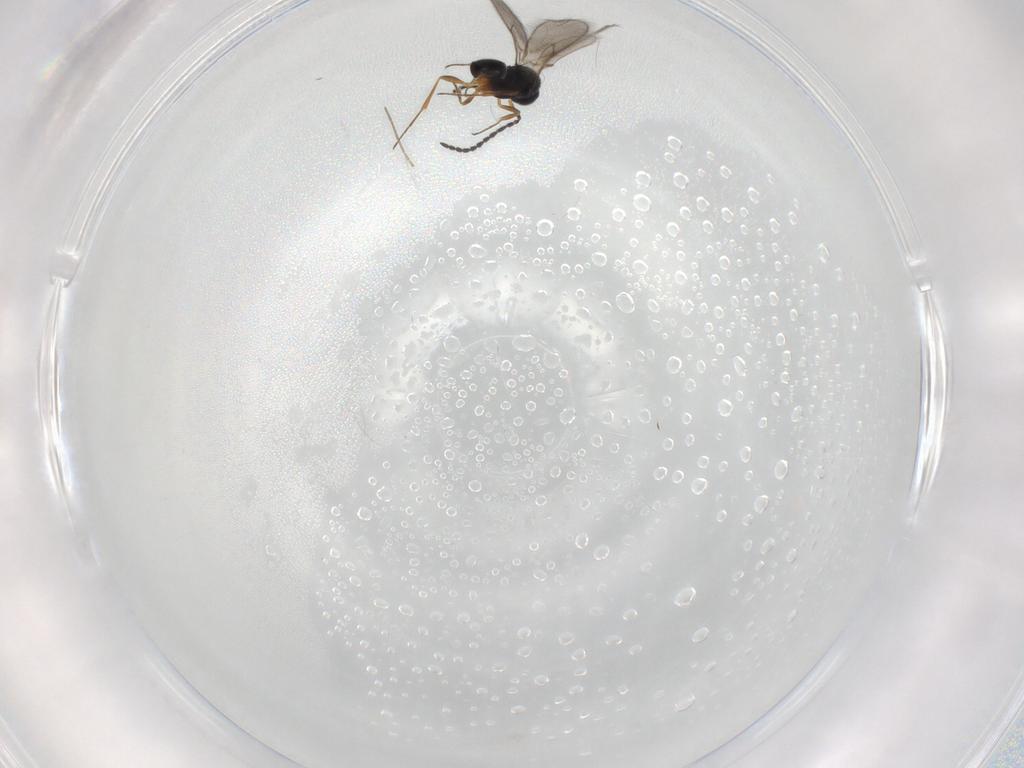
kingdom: Animalia
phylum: Arthropoda
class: Insecta
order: Hymenoptera
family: Scelionidae
